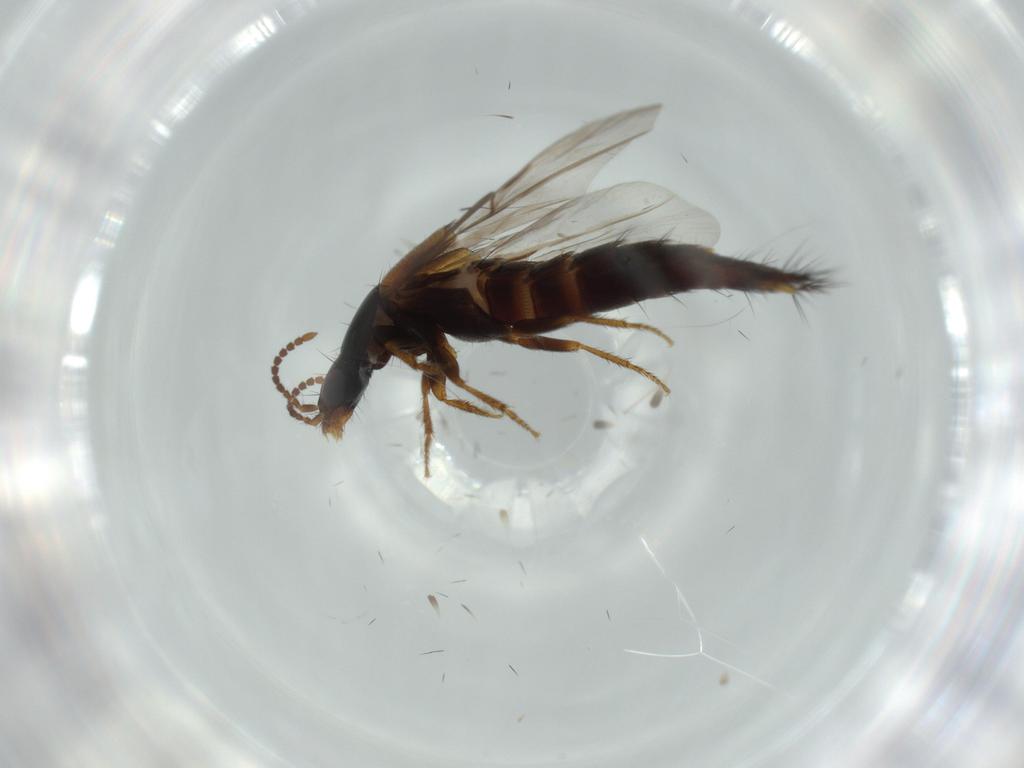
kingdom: Animalia
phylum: Arthropoda
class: Insecta
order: Coleoptera
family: Staphylinidae
